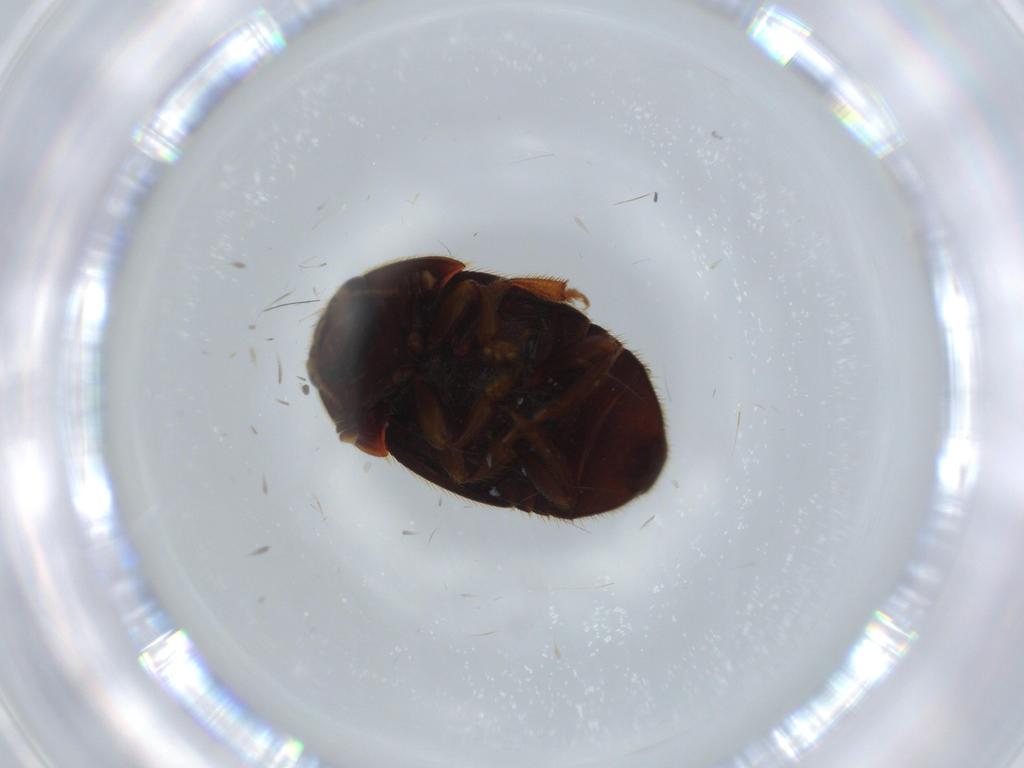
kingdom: Animalia
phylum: Arthropoda
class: Insecta
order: Coleoptera
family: Nitidulidae
